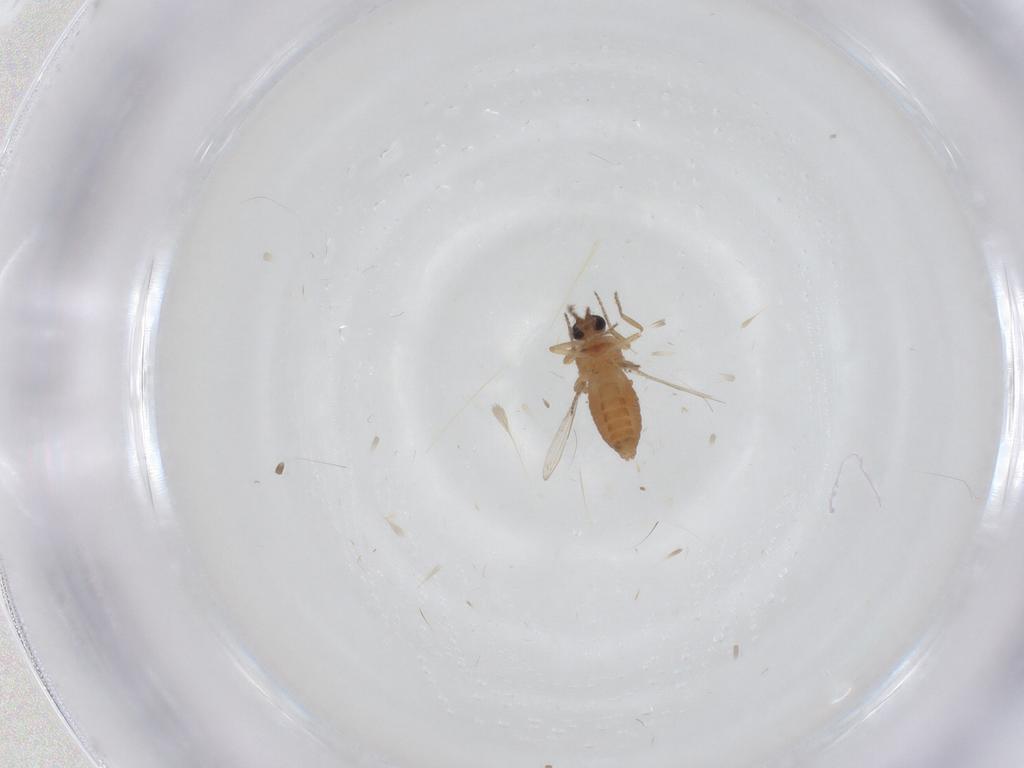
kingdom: Animalia
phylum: Arthropoda
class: Insecta
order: Diptera
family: Ceratopogonidae
